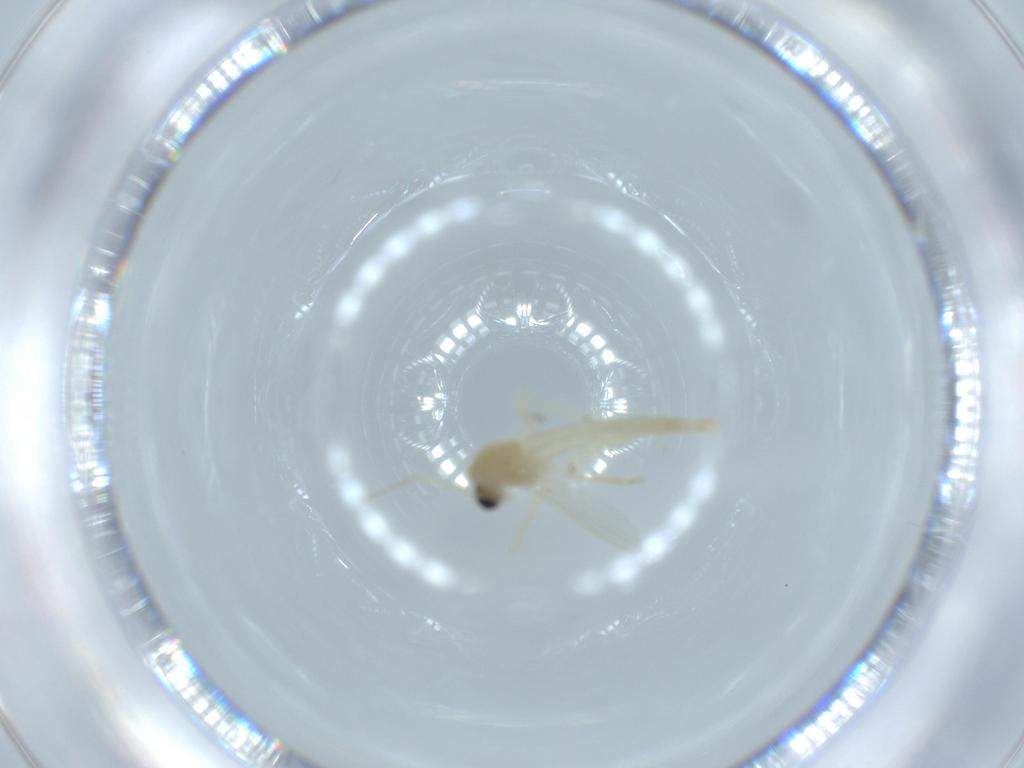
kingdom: Animalia
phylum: Arthropoda
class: Insecta
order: Diptera
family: Chironomidae
